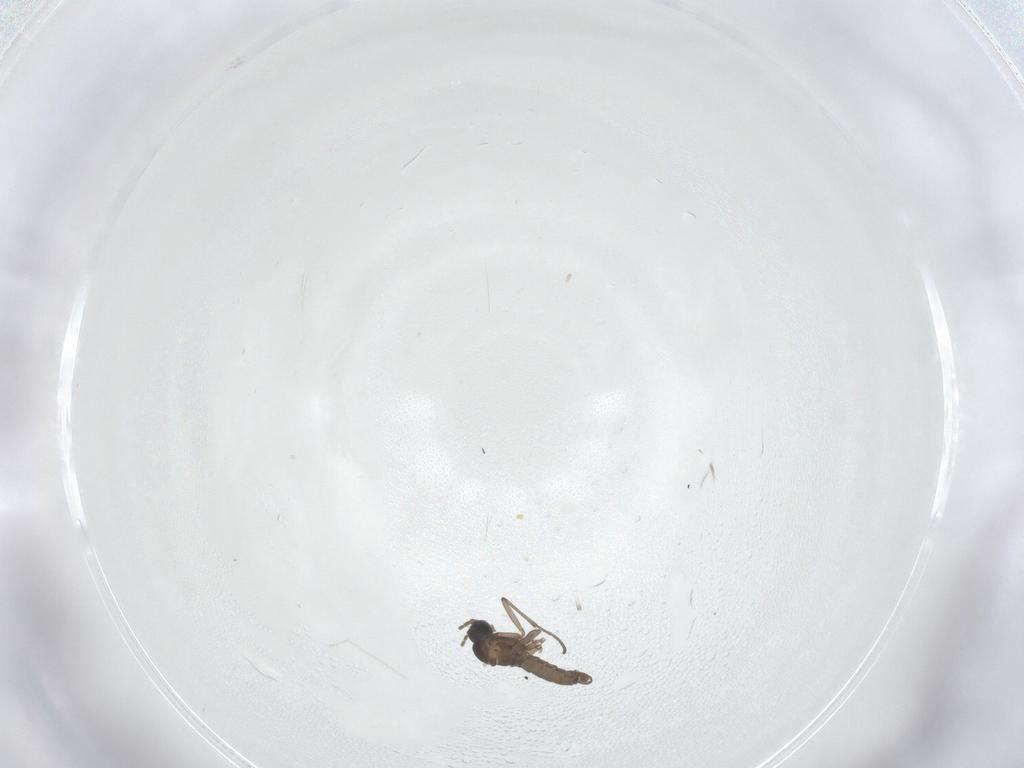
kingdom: Animalia
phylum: Arthropoda
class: Insecta
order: Diptera
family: Sciaridae
